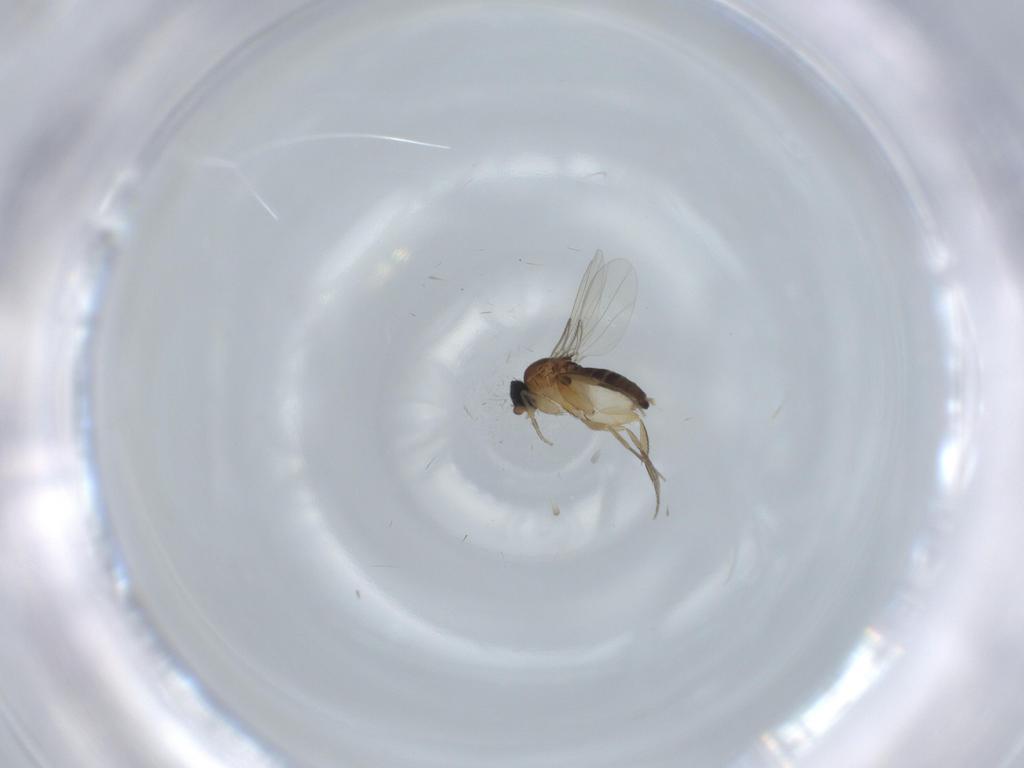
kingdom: Animalia
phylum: Arthropoda
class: Insecta
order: Diptera
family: Phoridae
